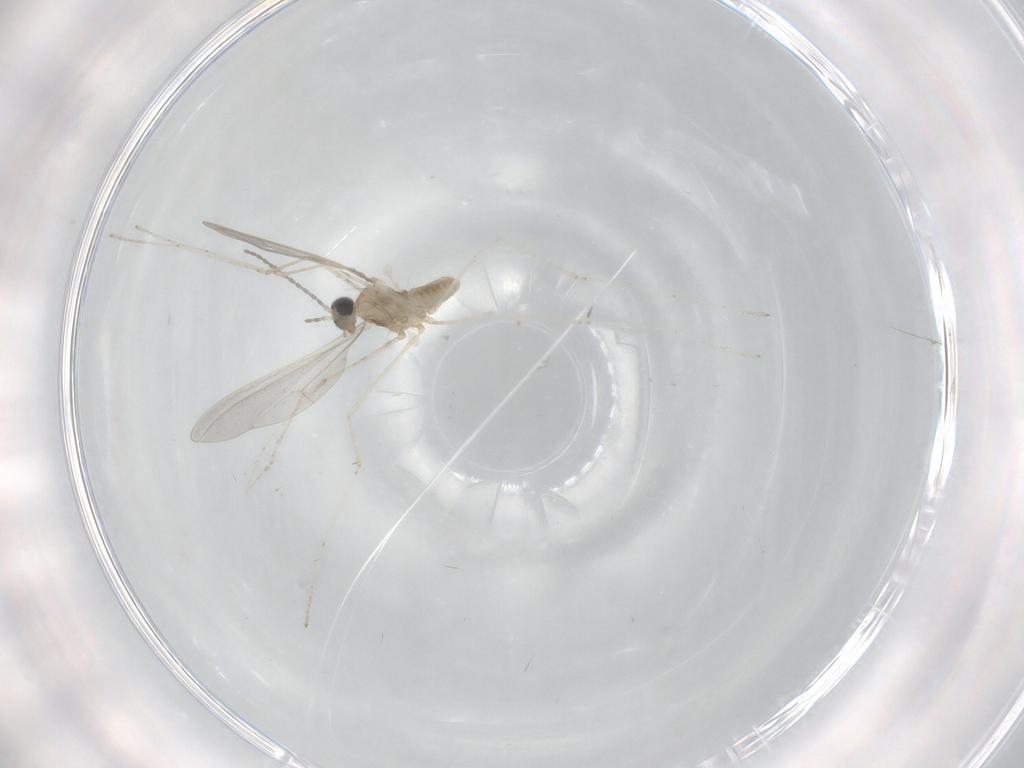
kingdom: Animalia
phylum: Arthropoda
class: Insecta
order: Diptera
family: Cecidomyiidae
